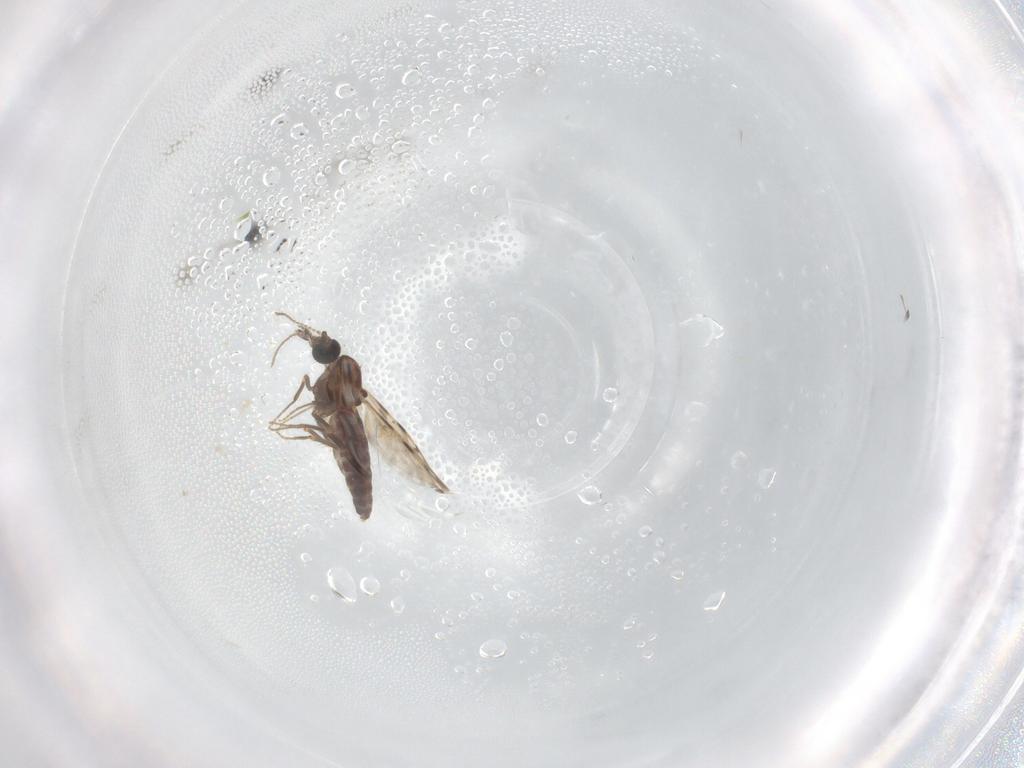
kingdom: Animalia
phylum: Arthropoda
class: Insecta
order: Diptera
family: Ceratopogonidae
